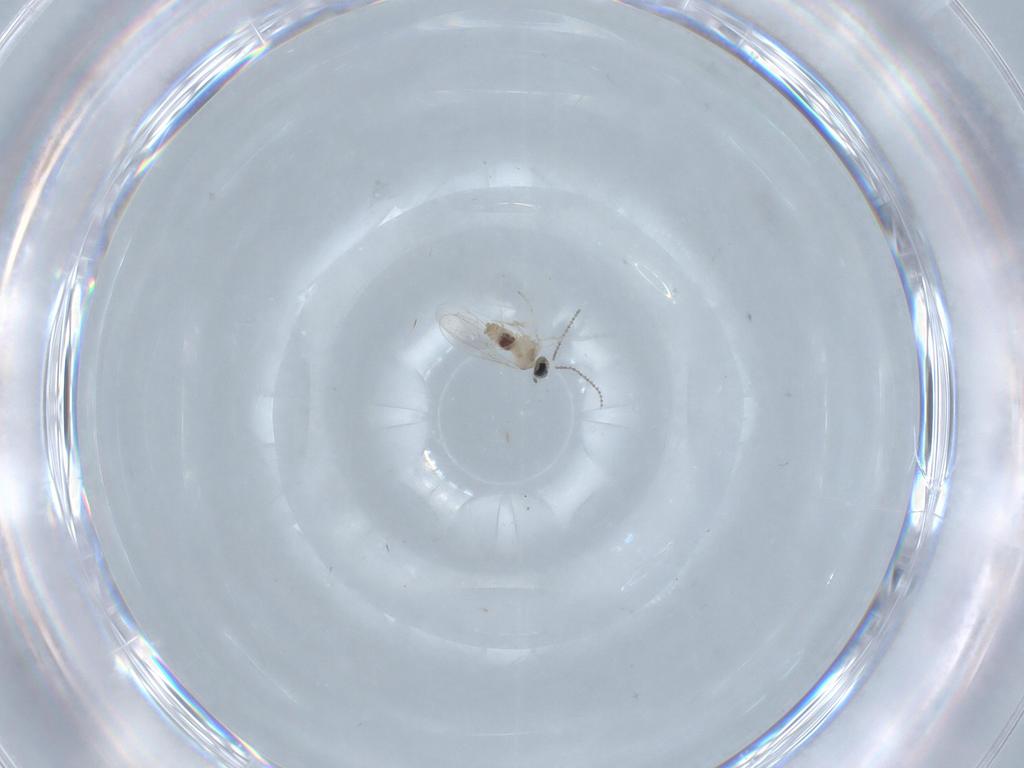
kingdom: Animalia
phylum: Arthropoda
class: Insecta
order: Diptera
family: Cecidomyiidae
